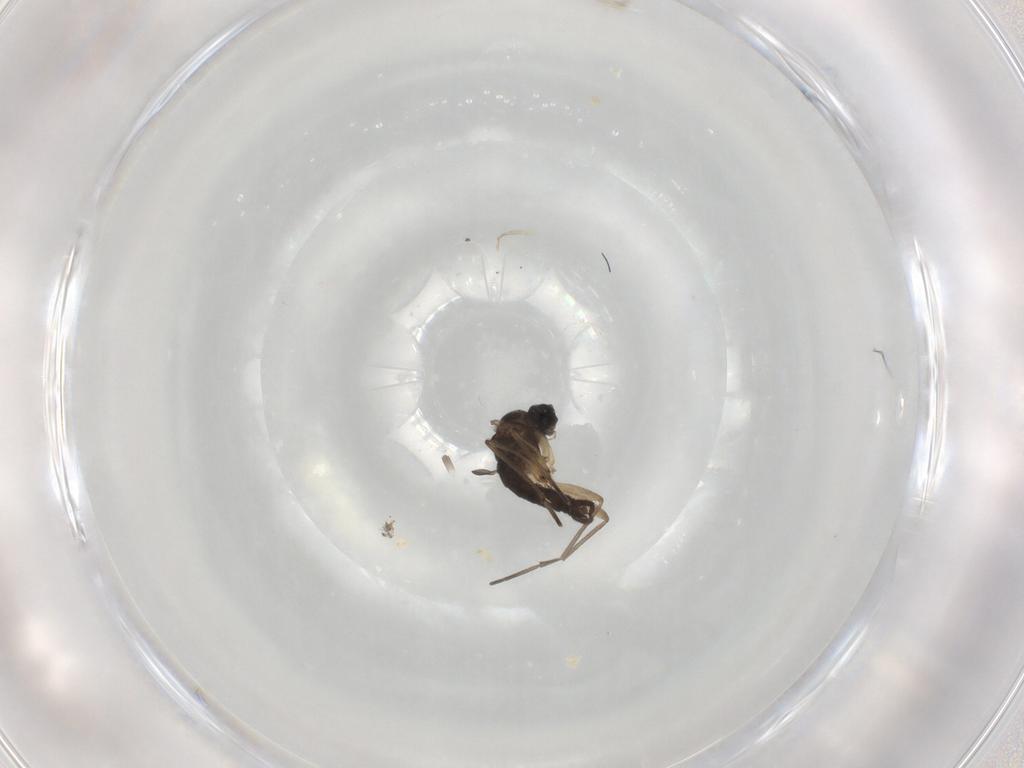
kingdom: Animalia
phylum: Arthropoda
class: Insecta
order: Diptera
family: Sciaridae
